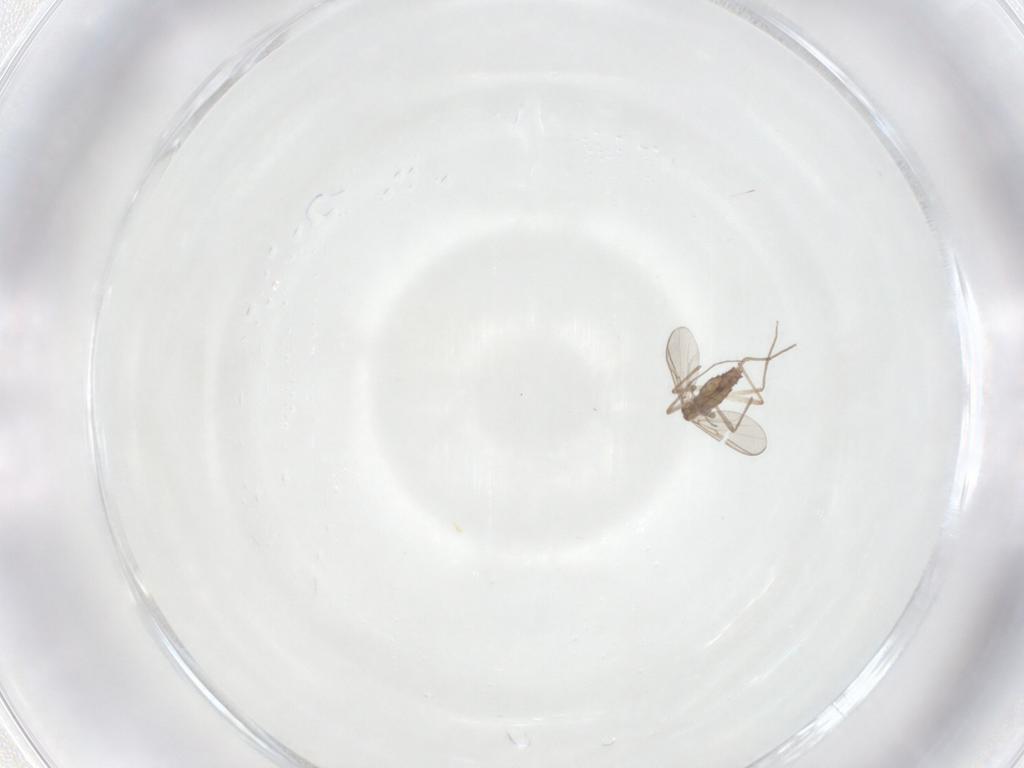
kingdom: Animalia
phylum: Arthropoda
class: Insecta
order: Diptera
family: Chironomidae
